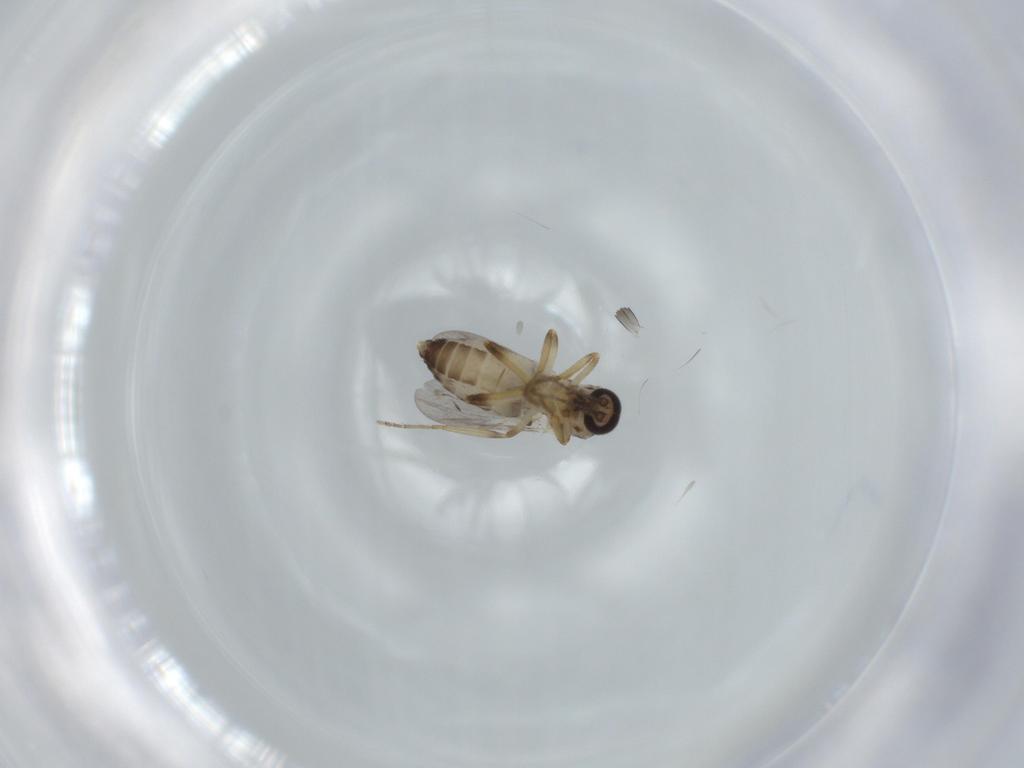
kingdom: Animalia
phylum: Arthropoda
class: Insecta
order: Diptera
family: Ceratopogonidae
